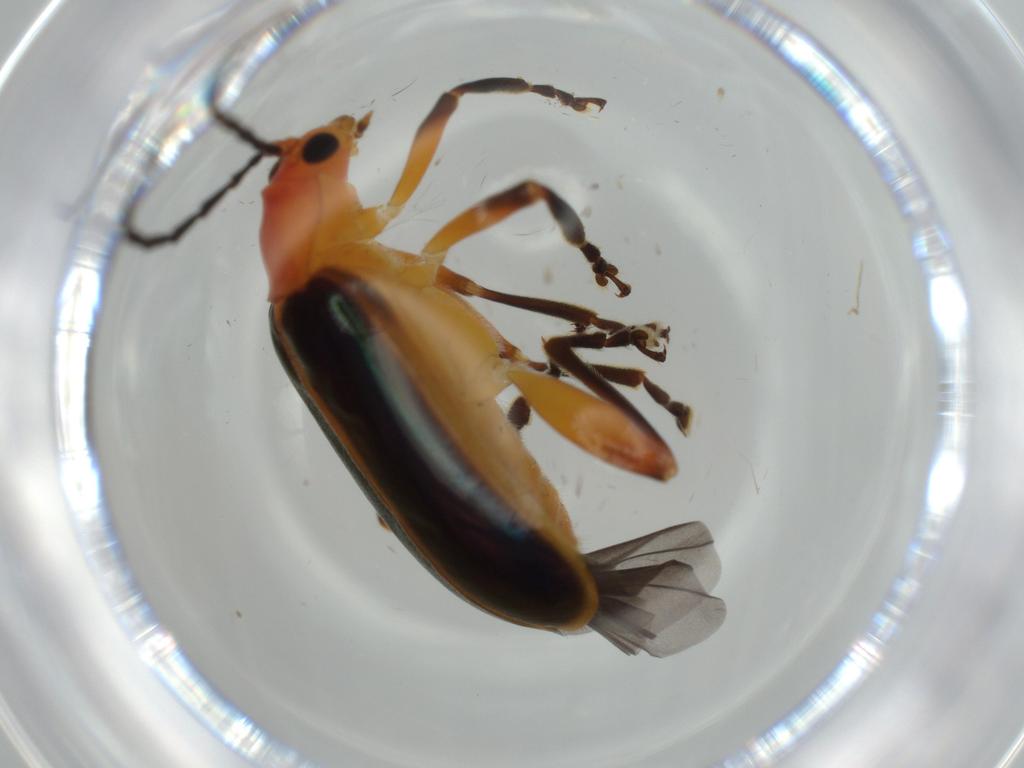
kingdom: Animalia
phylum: Arthropoda
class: Insecta
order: Coleoptera
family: Chrysomelidae
